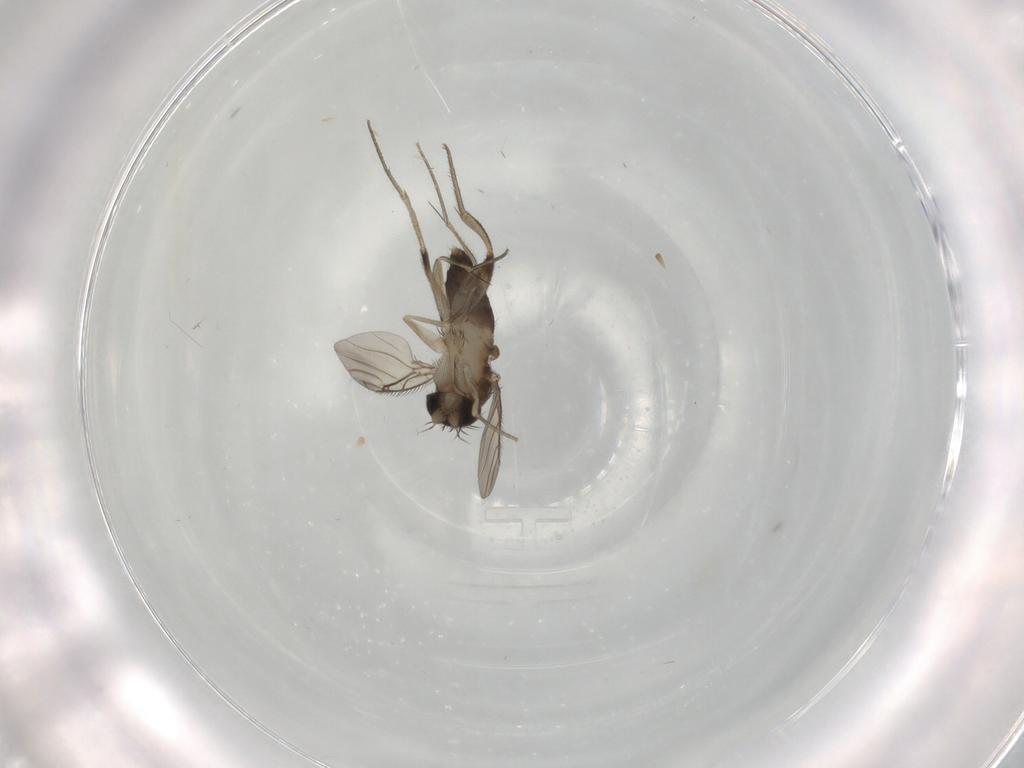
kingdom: Animalia
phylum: Arthropoda
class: Insecta
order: Diptera
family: Phoridae
